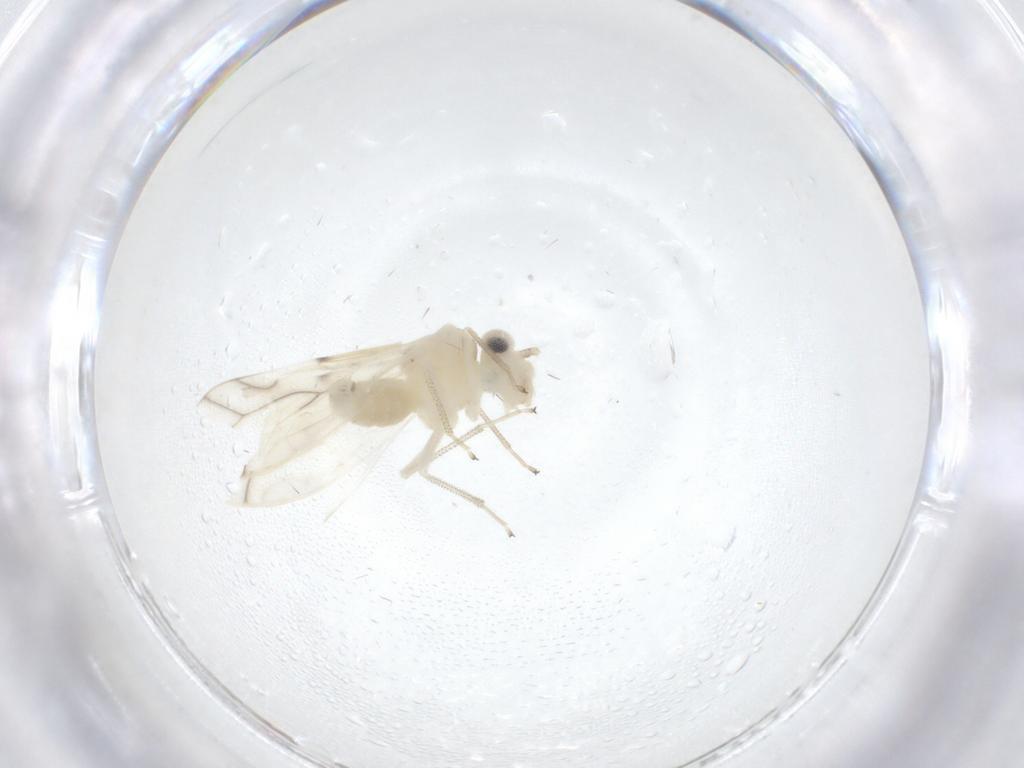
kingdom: Animalia
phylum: Arthropoda
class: Insecta
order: Psocodea
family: Caeciliusidae
